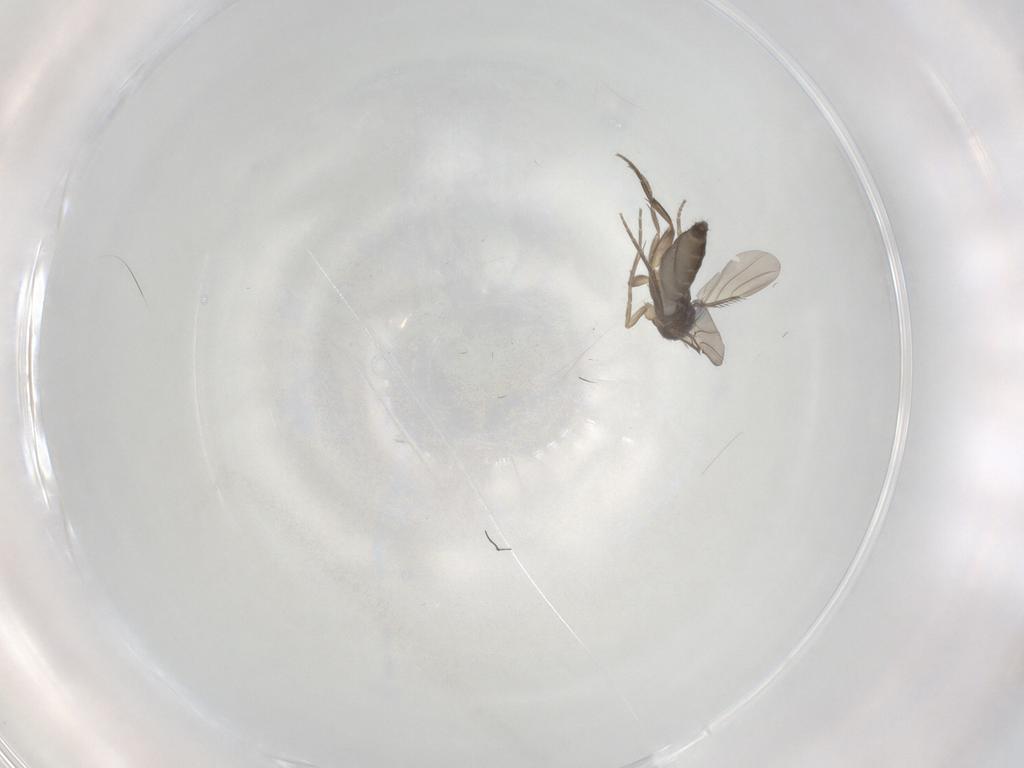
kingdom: Animalia
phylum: Arthropoda
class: Insecta
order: Diptera
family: Phoridae
